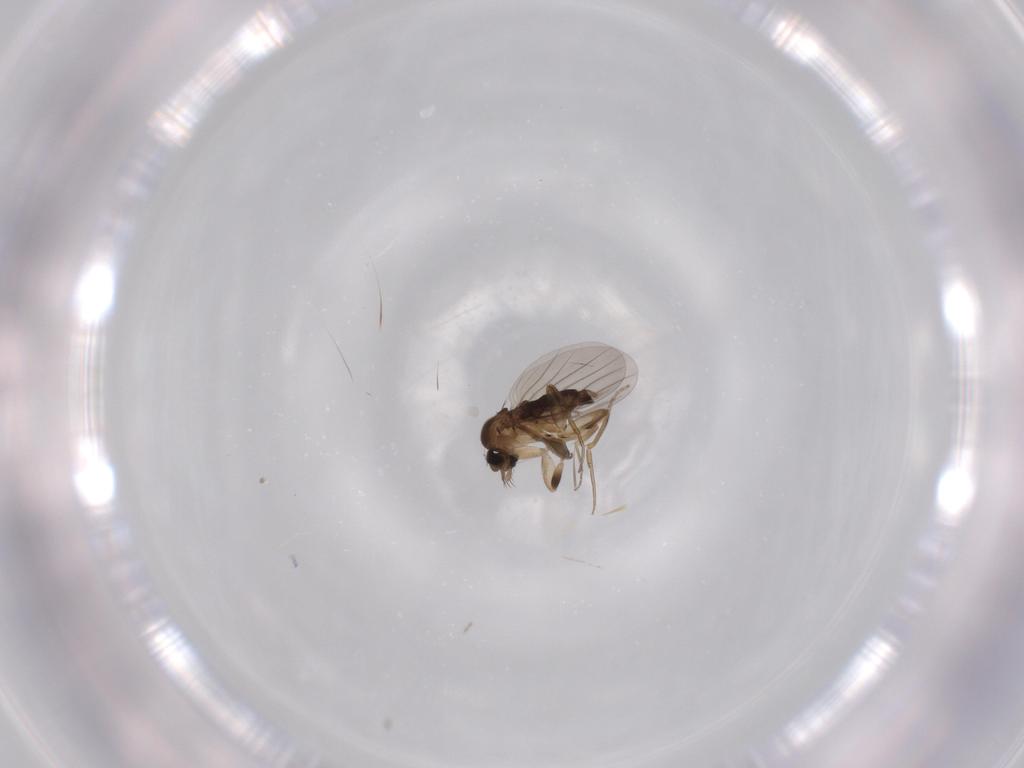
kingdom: Animalia
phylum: Arthropoda
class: Insecta
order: Diptera
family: Phoridae
